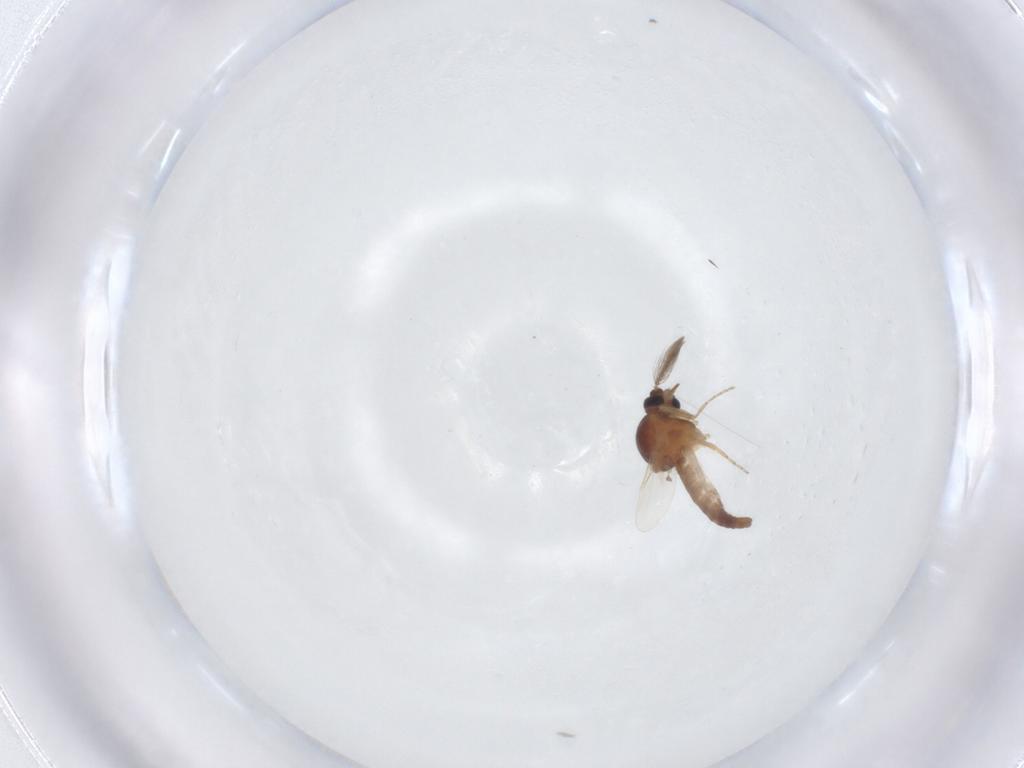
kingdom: Animalia
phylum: Arthropoda
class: Insecta
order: Diptera
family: Ceratopogonidae
